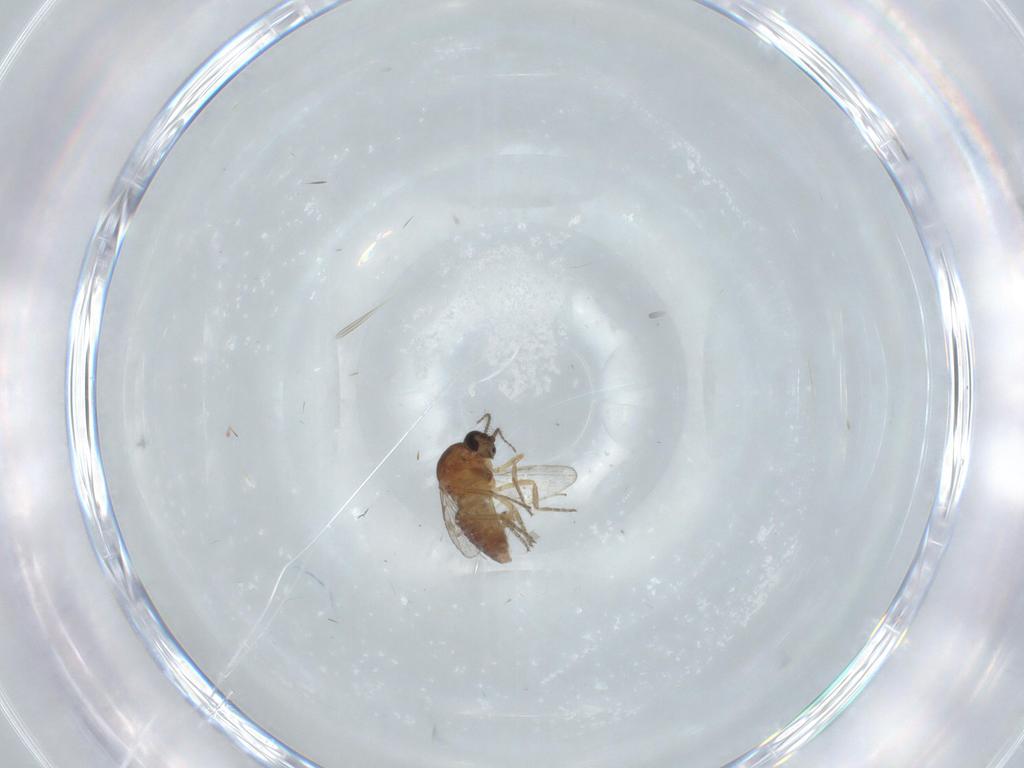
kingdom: Animalia
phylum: Arthropoda
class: Insecta
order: Diptera
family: Ceratopogonidae
